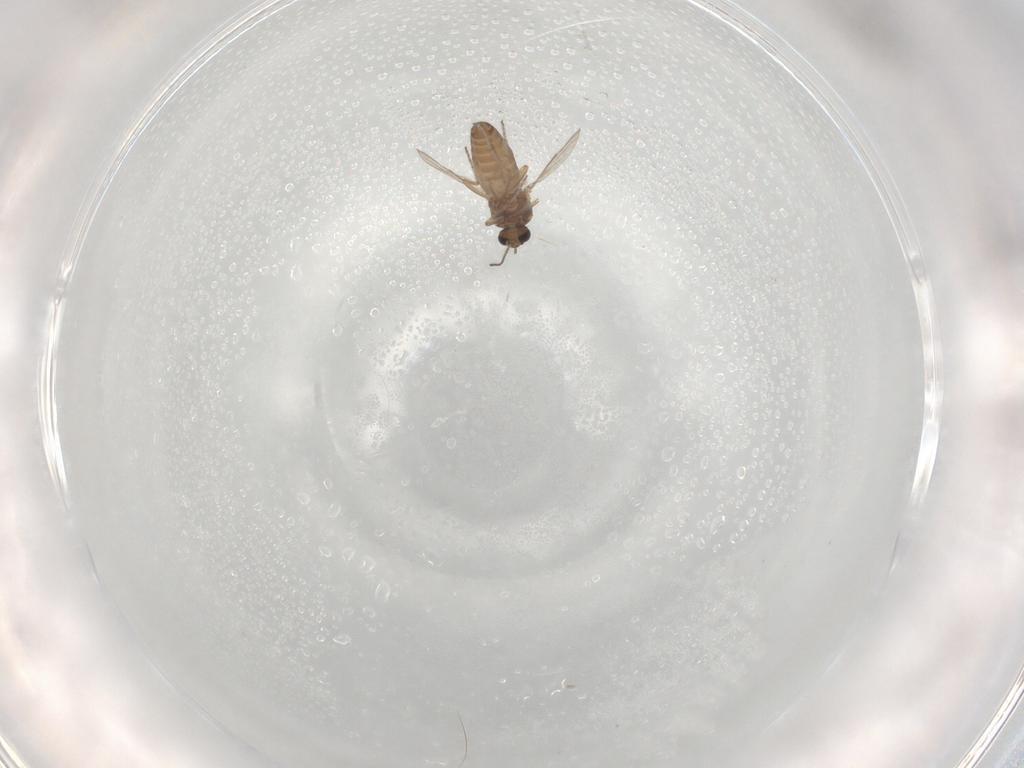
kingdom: Animalia
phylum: Arthropoda
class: Insecta
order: Diptera
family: Ceratopogonidae
